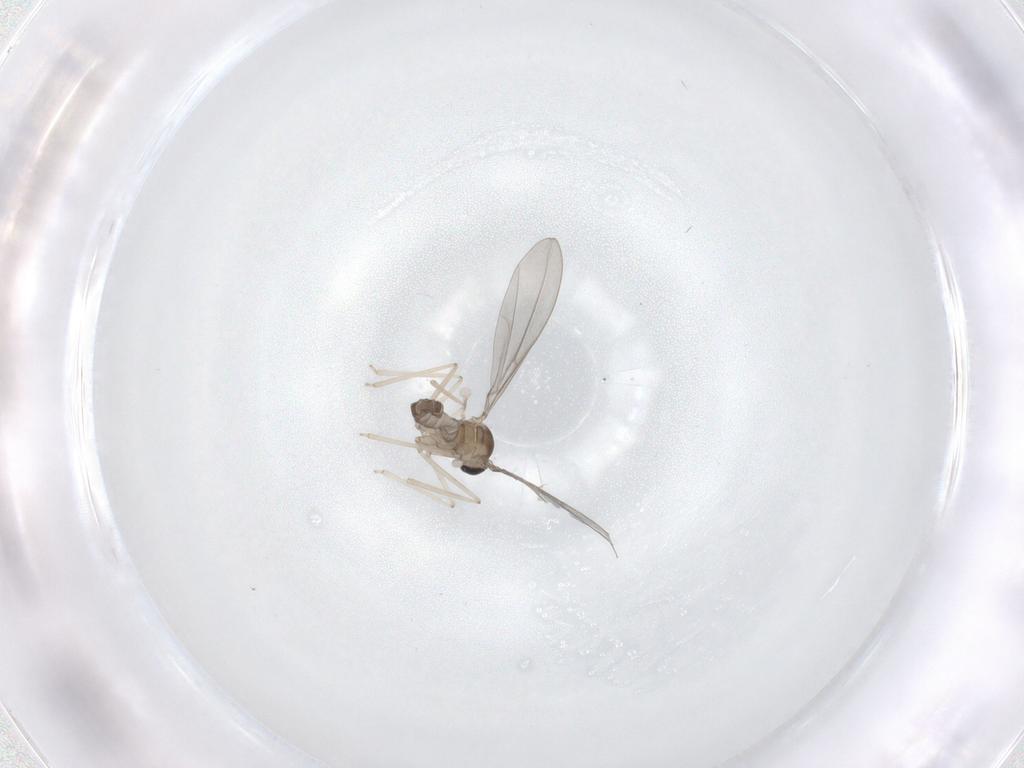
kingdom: Animalia
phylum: Arthropoda
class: Insecta
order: Diptera
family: Cecidomyiidae
